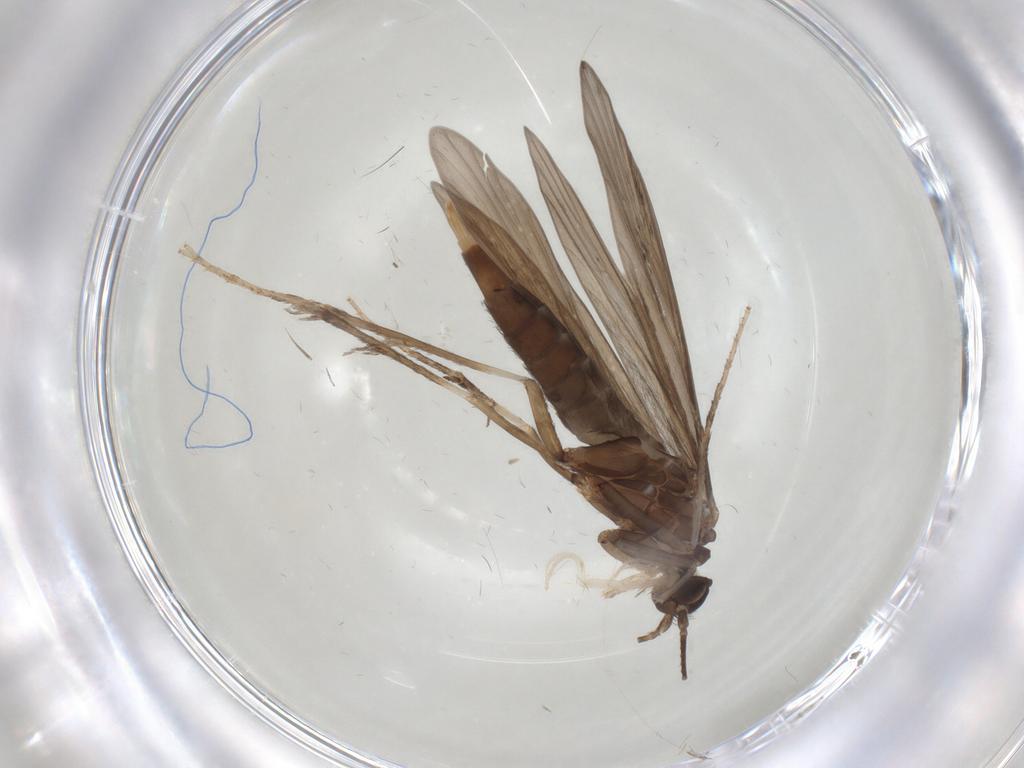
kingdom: Animalia
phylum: Arthropoda
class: Insecta
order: Trichoptera
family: Xiphocentronidae
